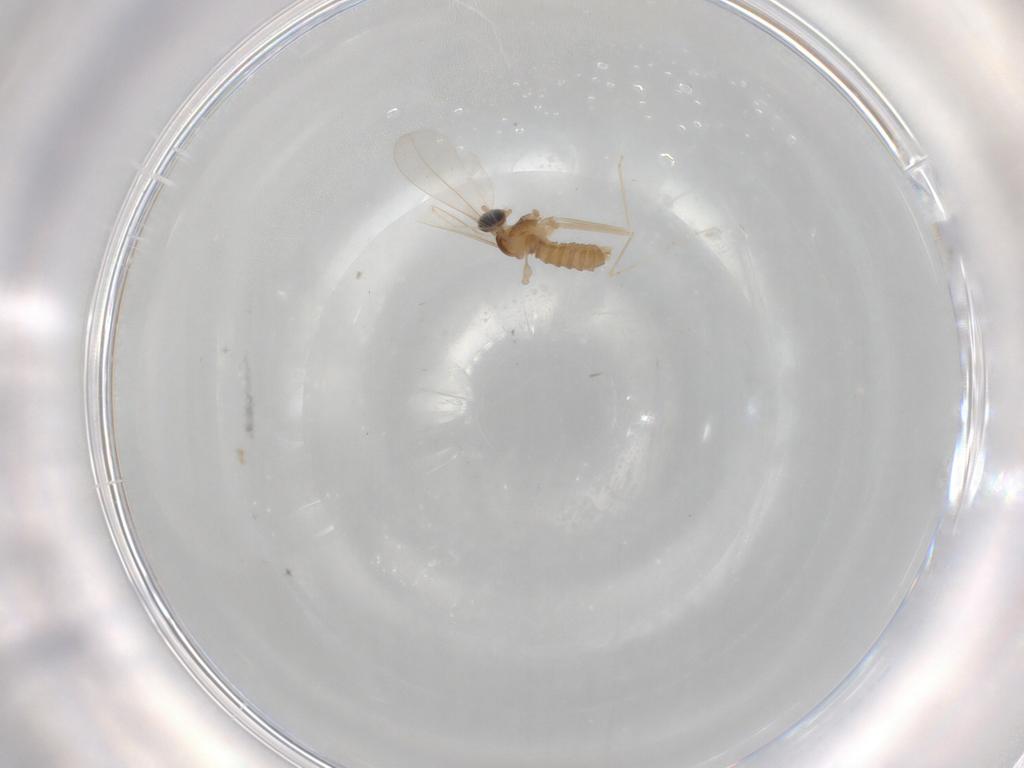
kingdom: Animalia
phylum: Arthropoda
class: Insecta
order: Diptera
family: Cecidomyiidae
